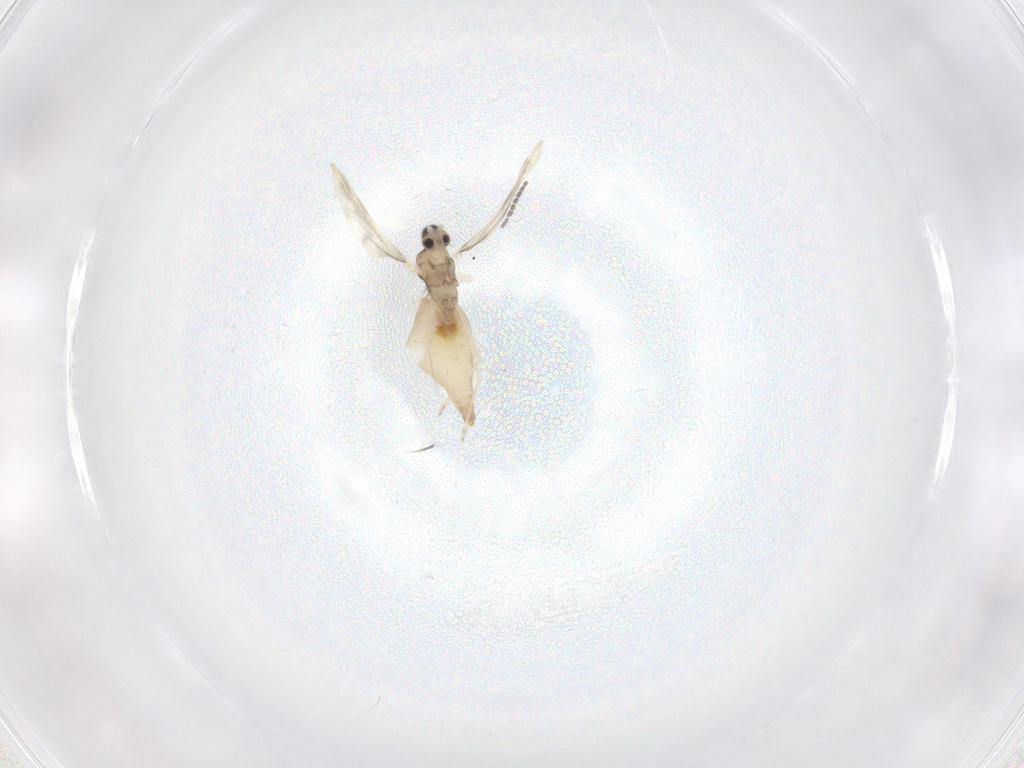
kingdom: Animalia
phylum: Arthropoda
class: Insecta
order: Diptera
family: Cecidomyiidae
